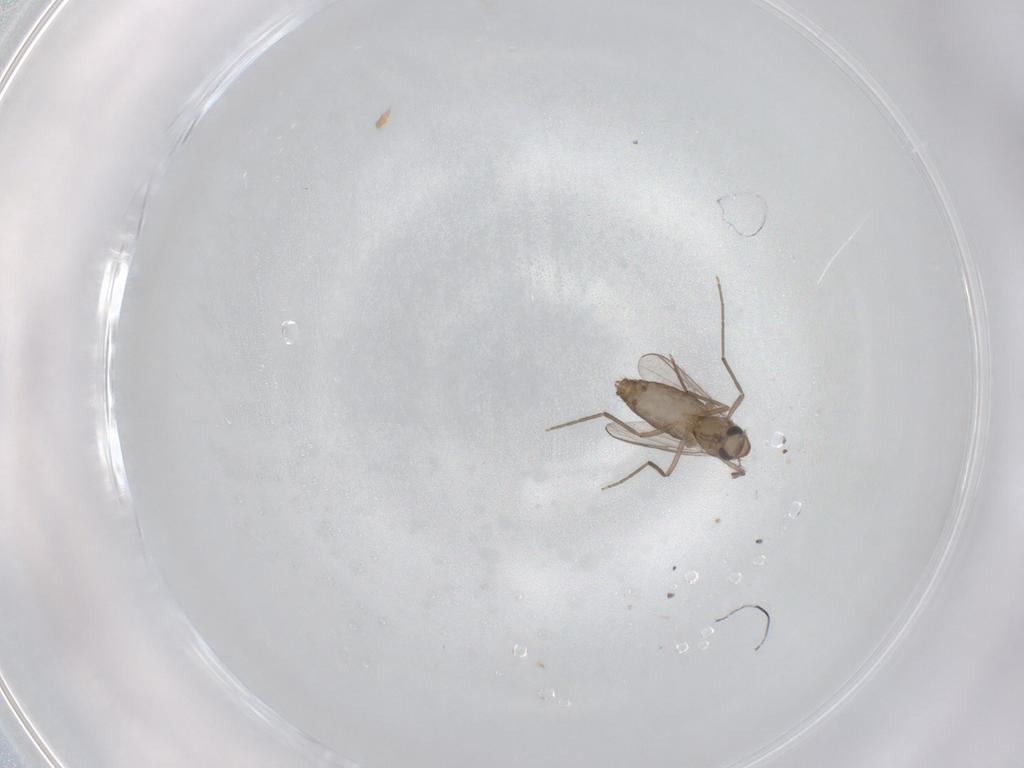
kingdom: Animalia
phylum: Arthropoda
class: Insecta
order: Diptera
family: Chironomidae
